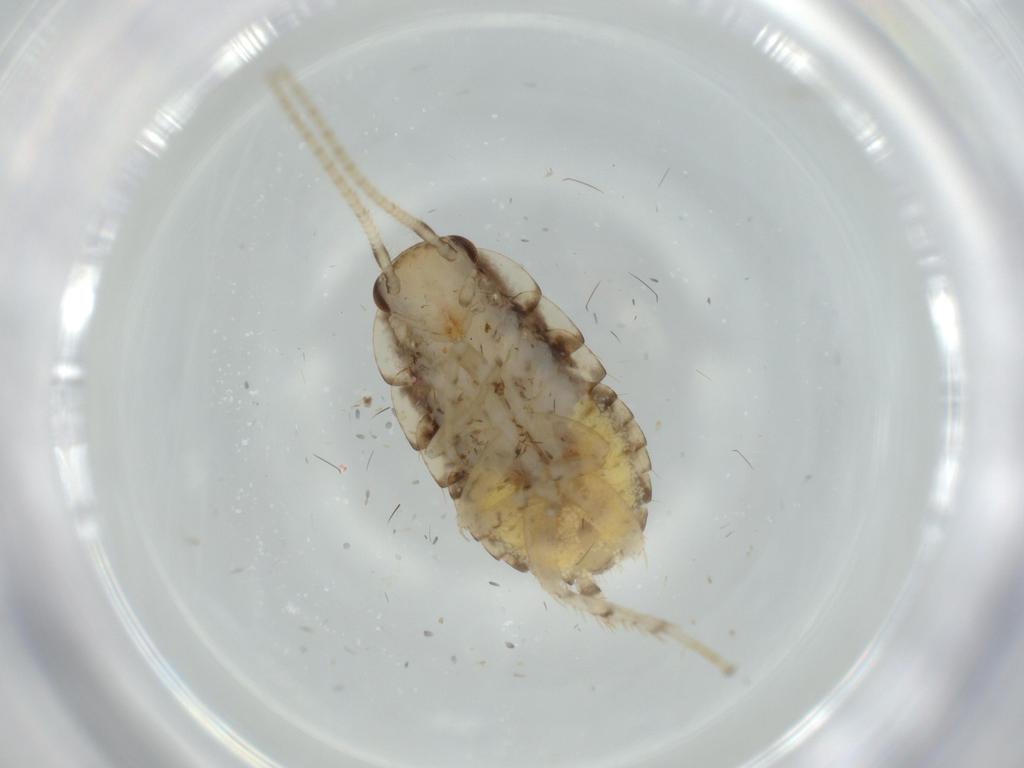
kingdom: Animalia
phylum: Arthropoda
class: Insecta
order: Blattodea
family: Ectobiidae
